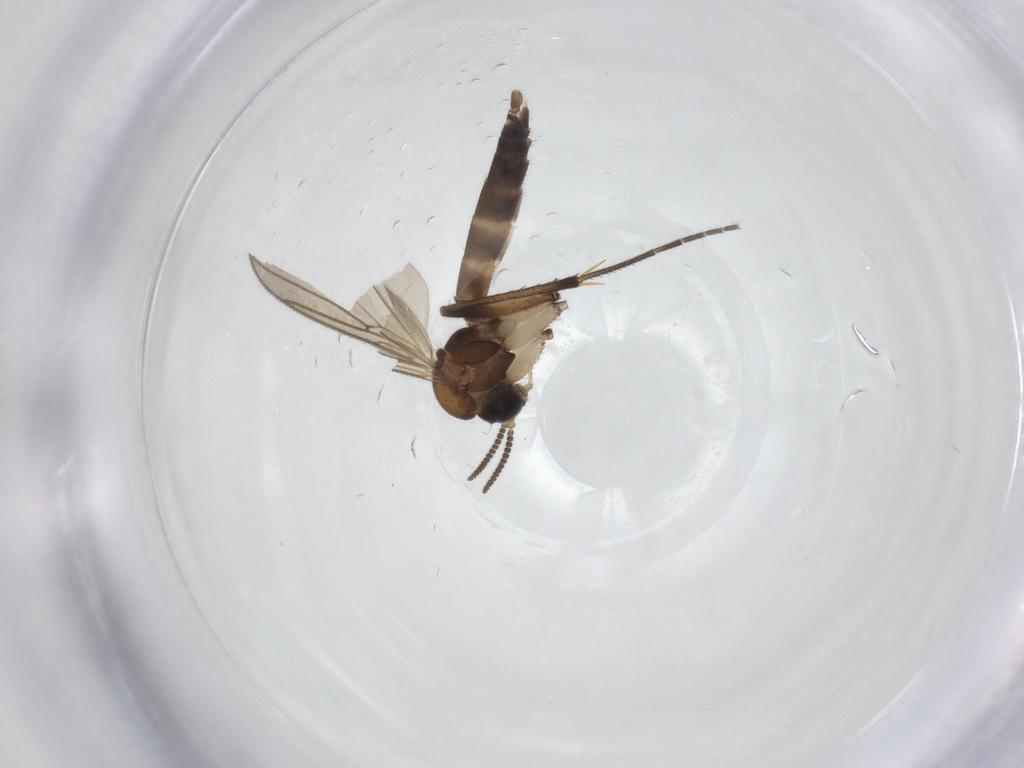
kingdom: Animalia
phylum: Arthropoda
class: Insecta
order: Diptera
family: Mycetophilidae
